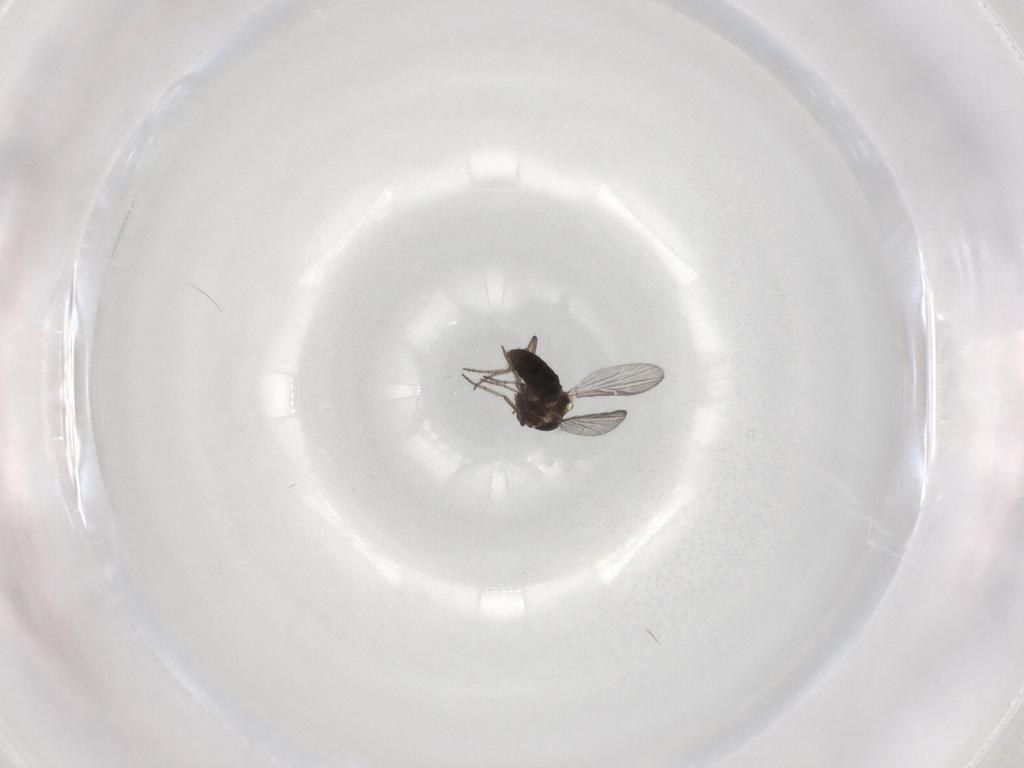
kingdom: Animalia
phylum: Arthropoda
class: Insecta
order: Diptera
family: Ceratopogonidae
